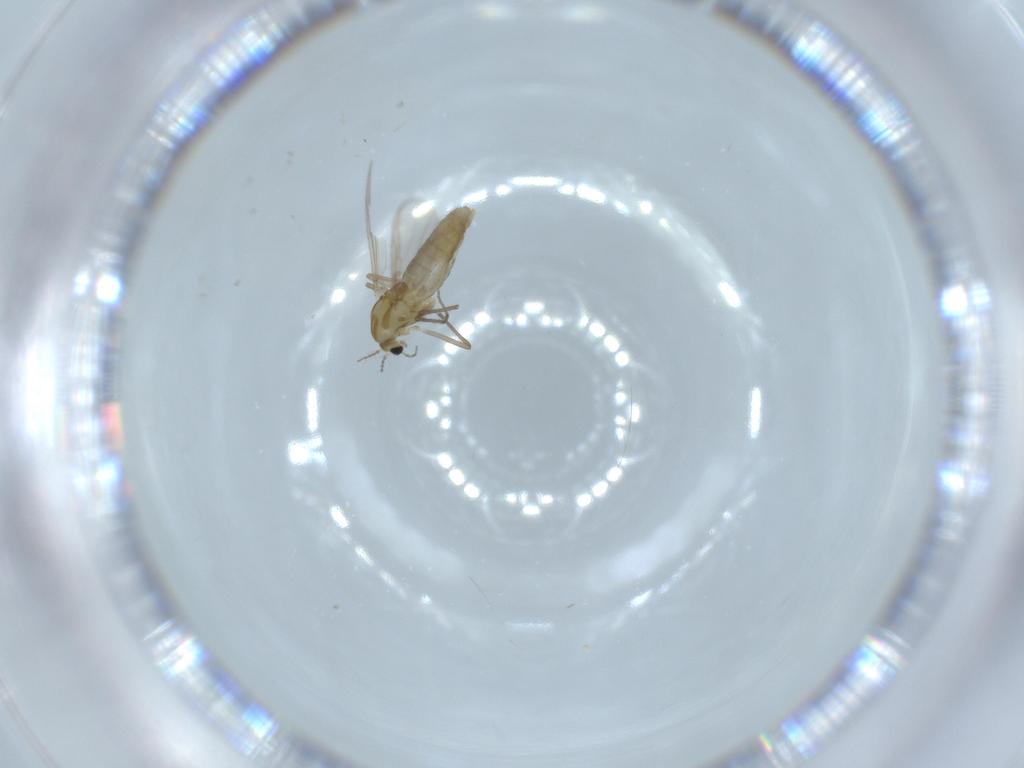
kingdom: Animalia
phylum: Arthropoda
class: Insecta
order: Diptera
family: Chironomidae
